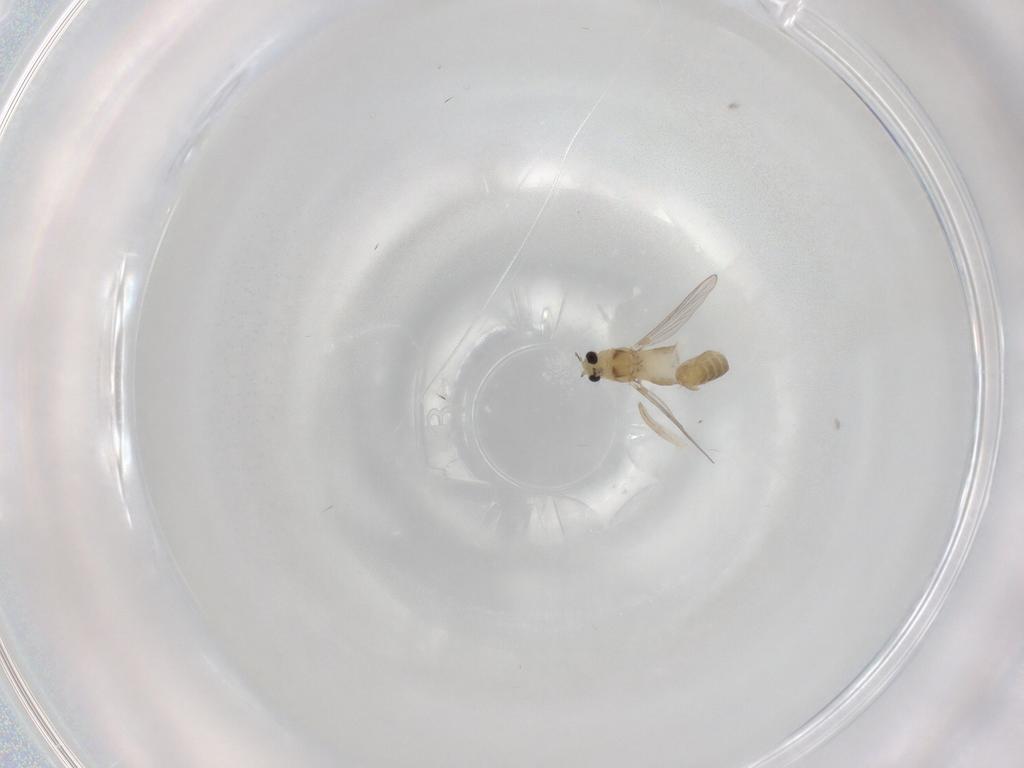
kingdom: Animalia
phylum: Arthropoda
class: Insecta
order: Diptera
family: Chironomidae
